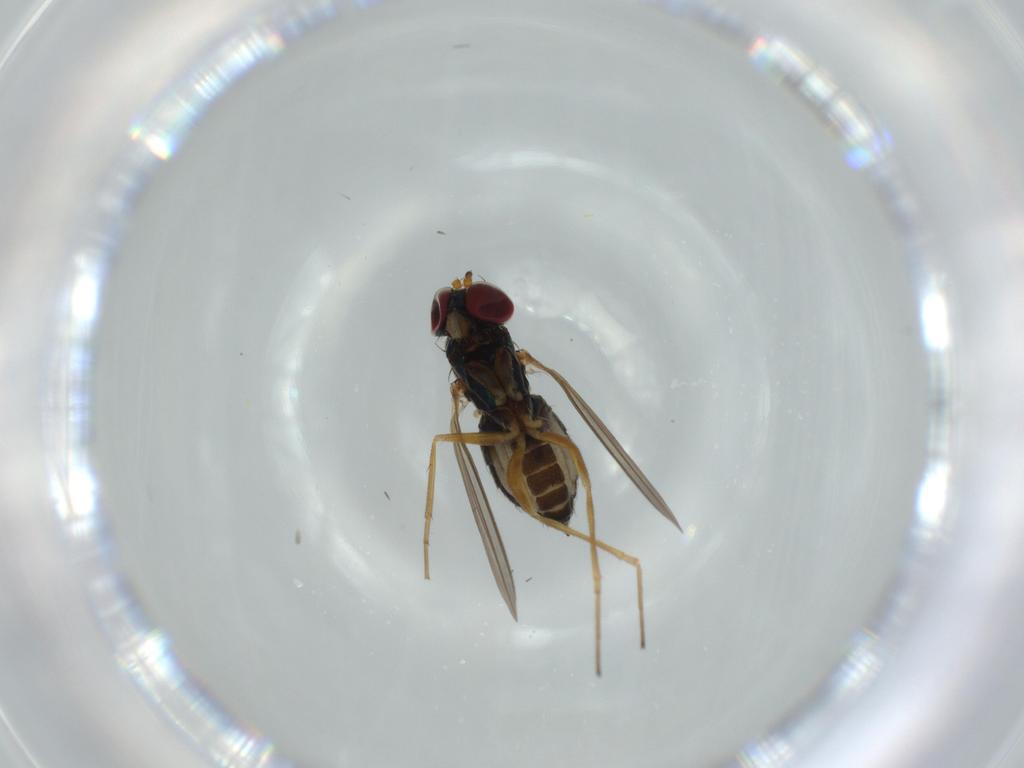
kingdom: Animalia
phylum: Arthropoda
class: Insecta
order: Diptera
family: Dolichopodidae
